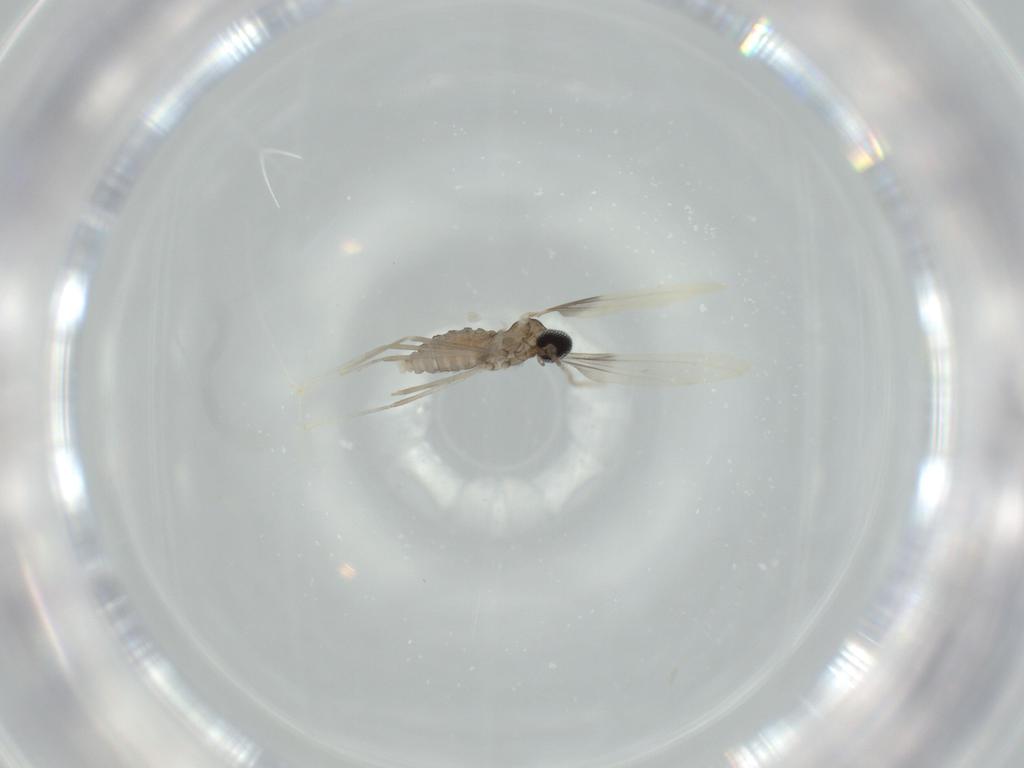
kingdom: Animalia
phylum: Arthropoda
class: Insecta
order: Diptera
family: Cecidomyiidae
